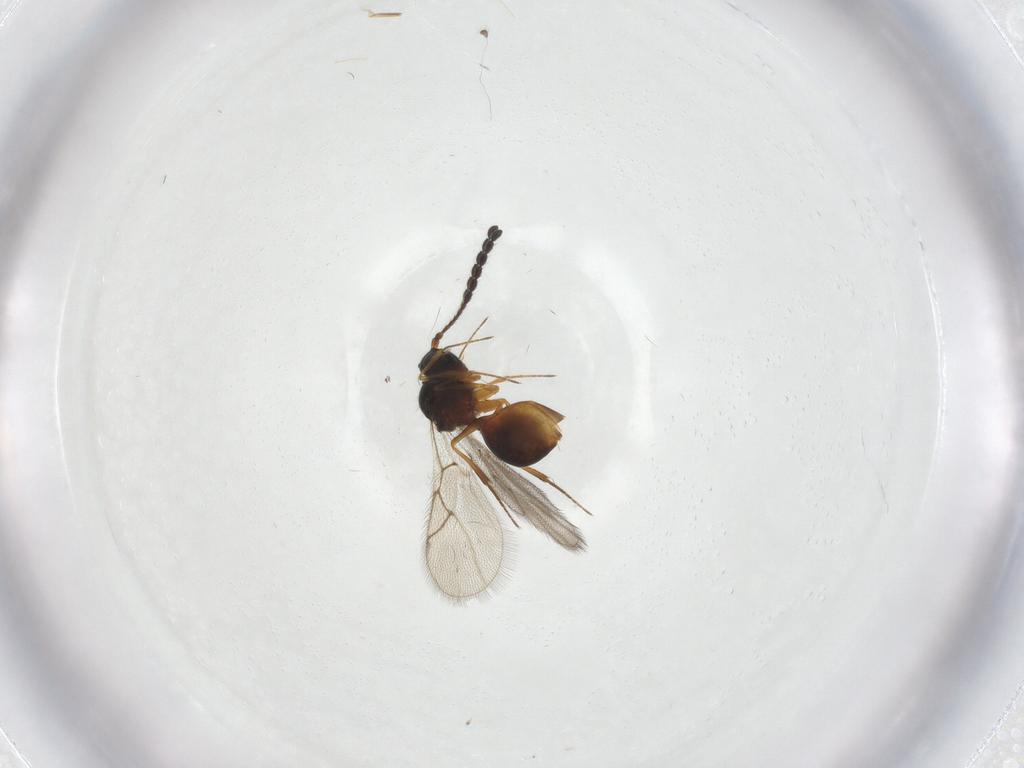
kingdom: Animalia
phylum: Arthropoda
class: Insecta
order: Hymenoptera
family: Figitidae
